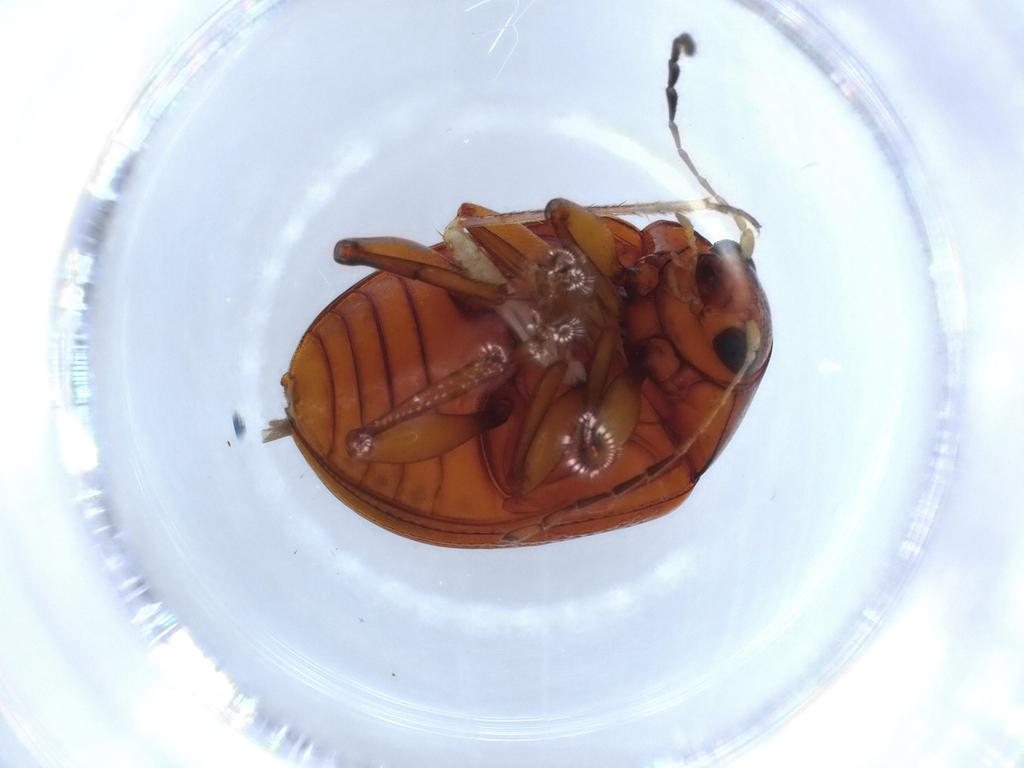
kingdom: Animalia
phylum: Arthropoda
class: Insecta
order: Coleoptera
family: Chrysomelidae
